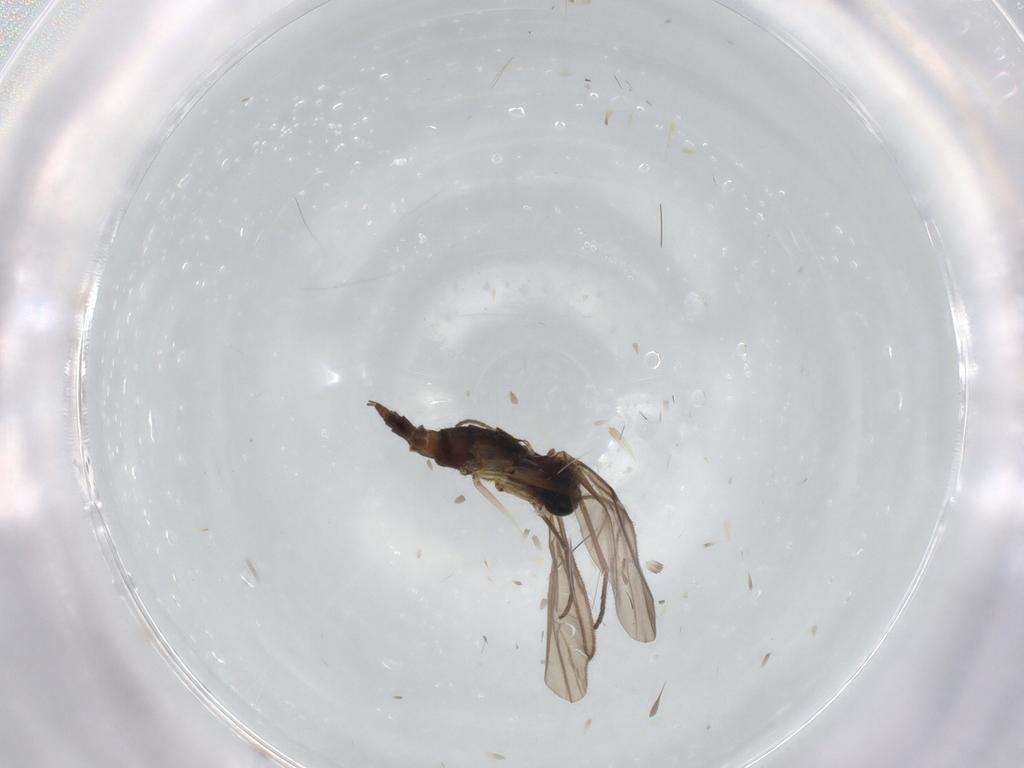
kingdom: Animalia
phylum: Arthropoda
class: Insecta
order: Diptera
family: Sciaridae
